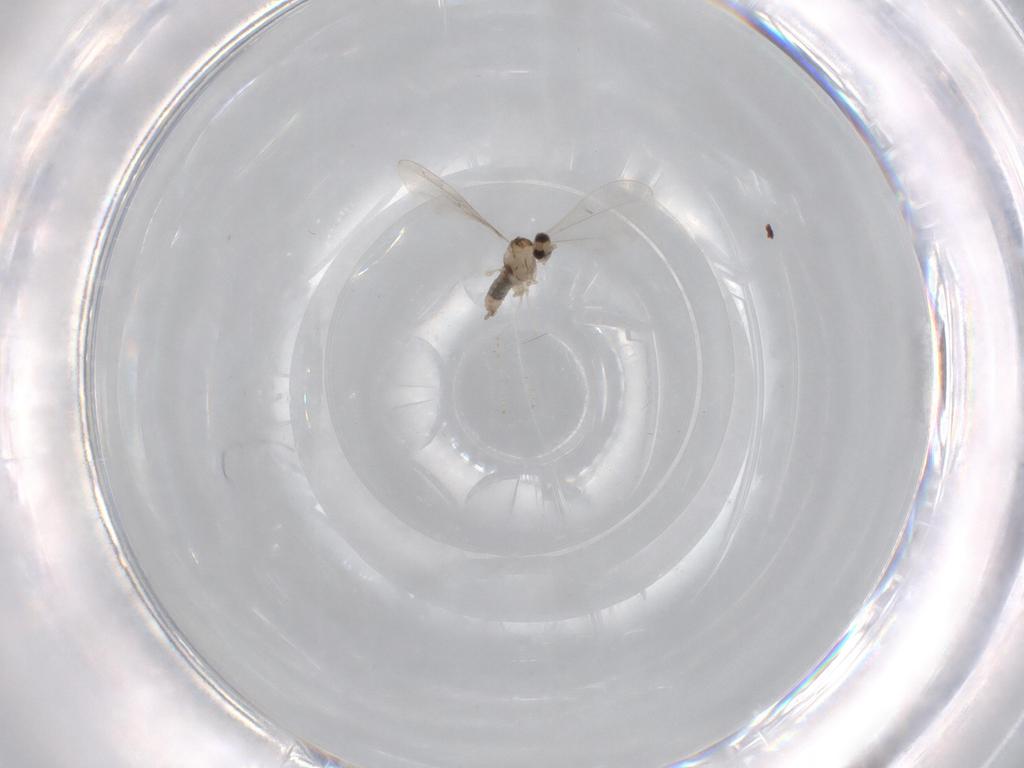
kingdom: Animalia
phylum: Arthropoda
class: Insecta
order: Diptera
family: Cecidomyiidae
